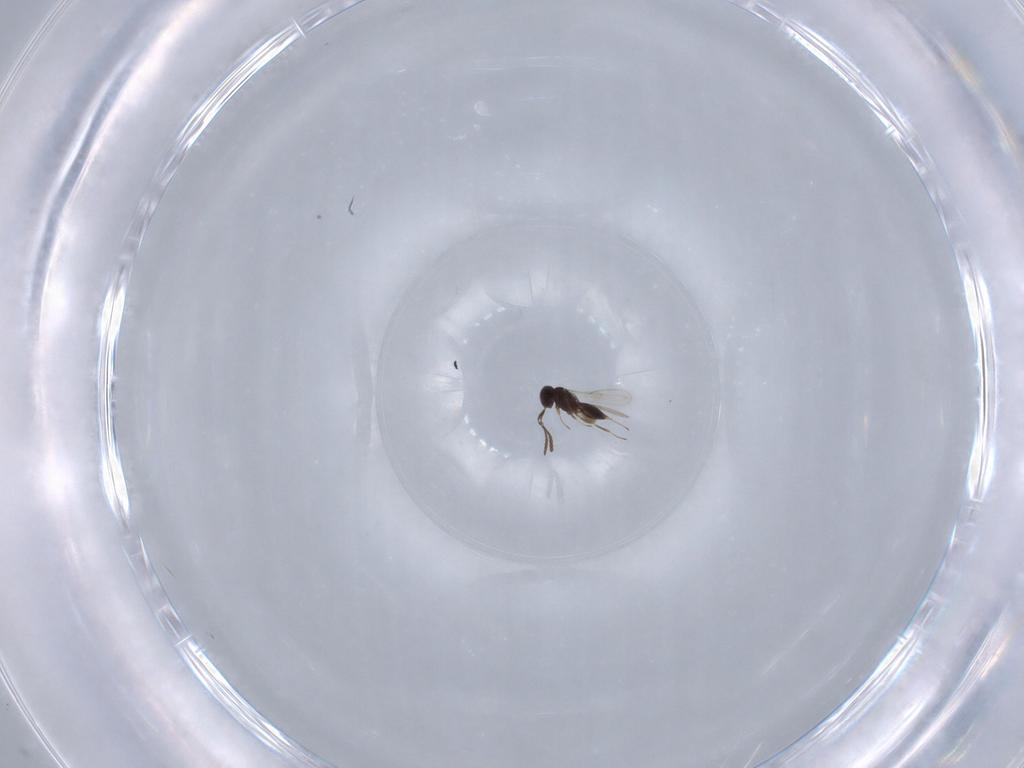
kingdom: Animalia
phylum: Arthropoda
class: Insecta
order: Hymenoptera
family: Scelionidae
